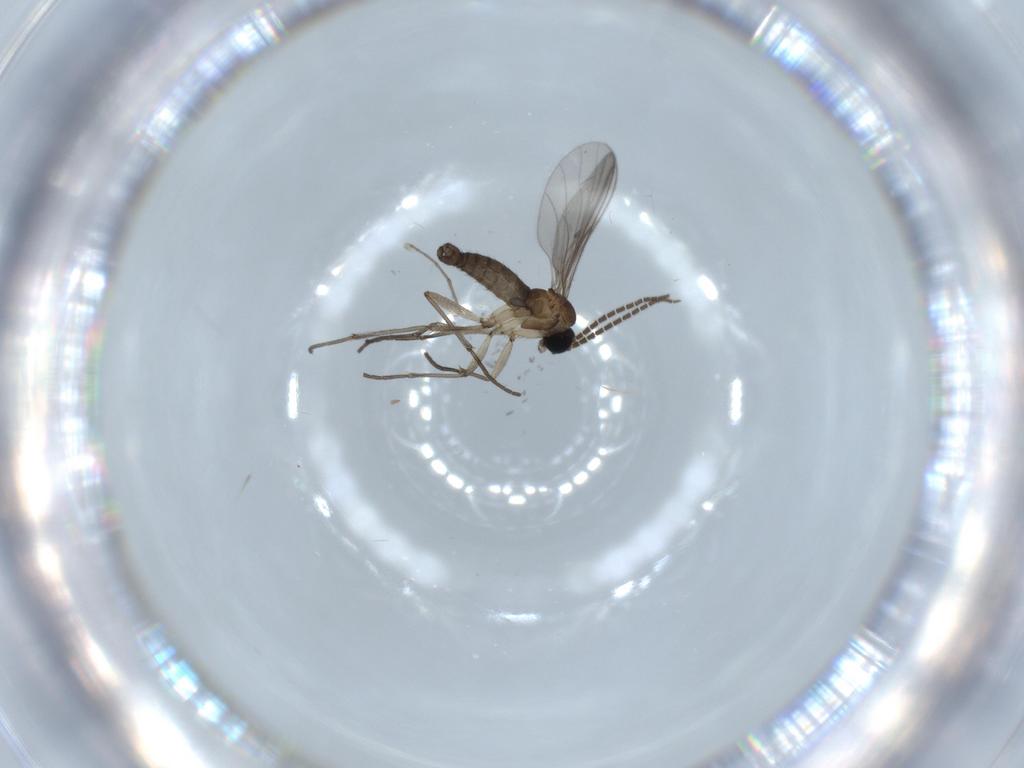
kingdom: Animalia
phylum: Arthropoda
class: Insecta
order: Diptera
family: Sciaridae
